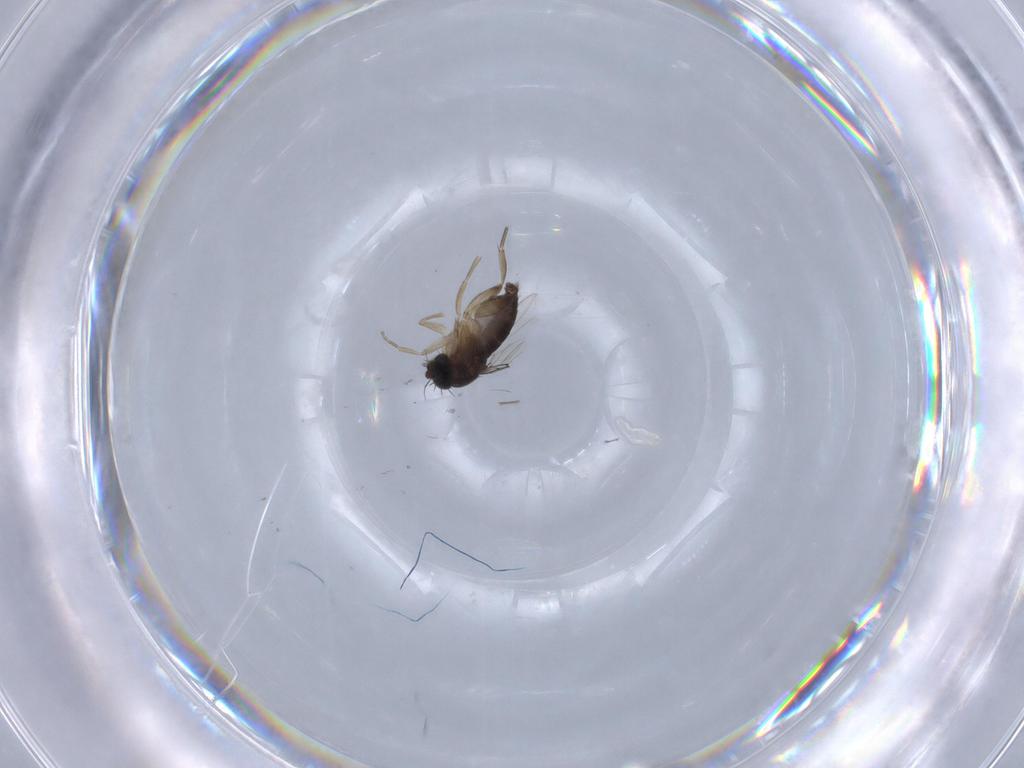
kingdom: Animalia
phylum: Arthropoda
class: Insecta
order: Diptera
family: Phoridae
